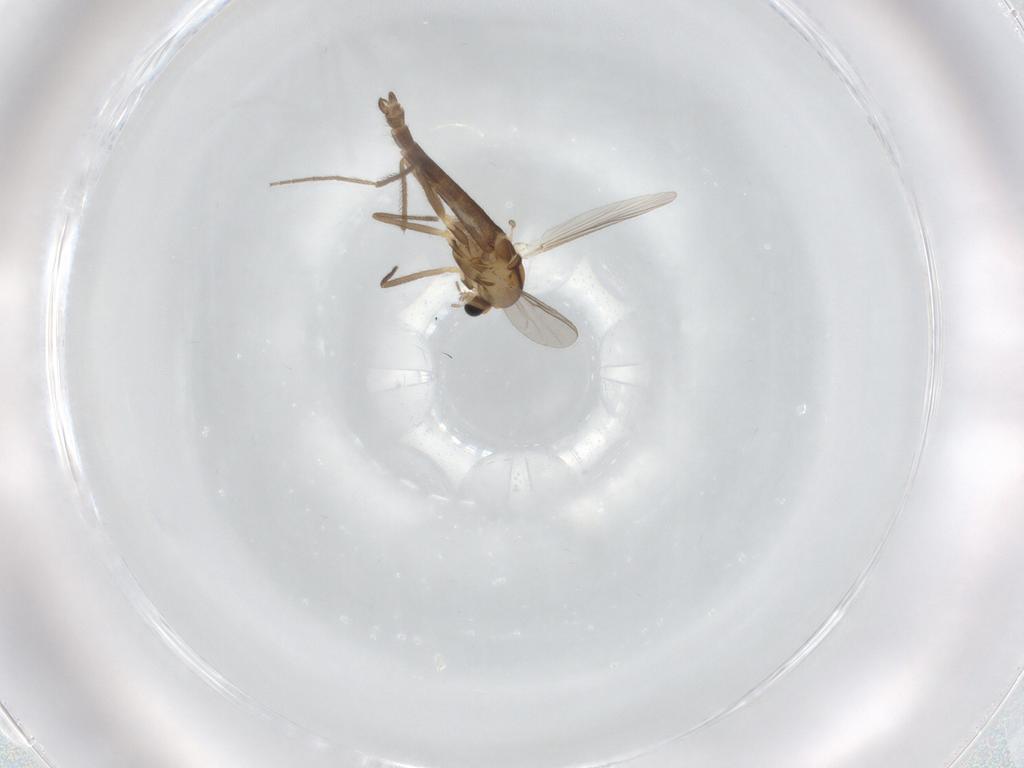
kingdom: Animalia
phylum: Arthropoda
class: Insecta
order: Diptera
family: Chironomidae
